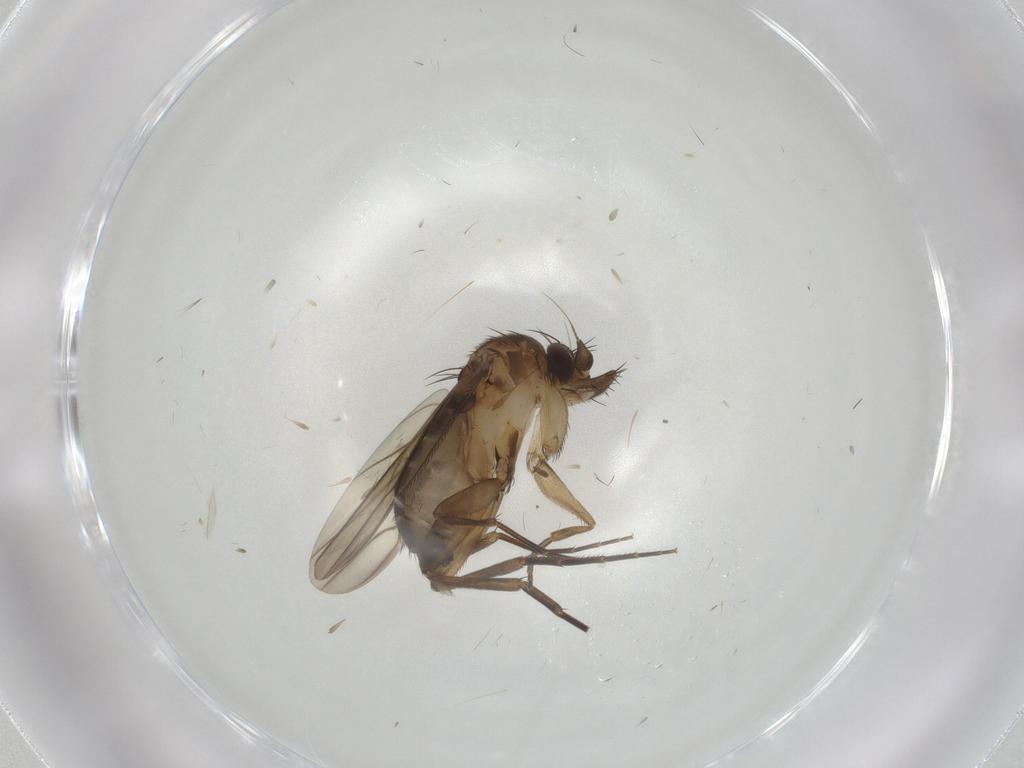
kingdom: Animalia
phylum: Arthropoda
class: Insecta
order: Diptera
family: Phoridae
